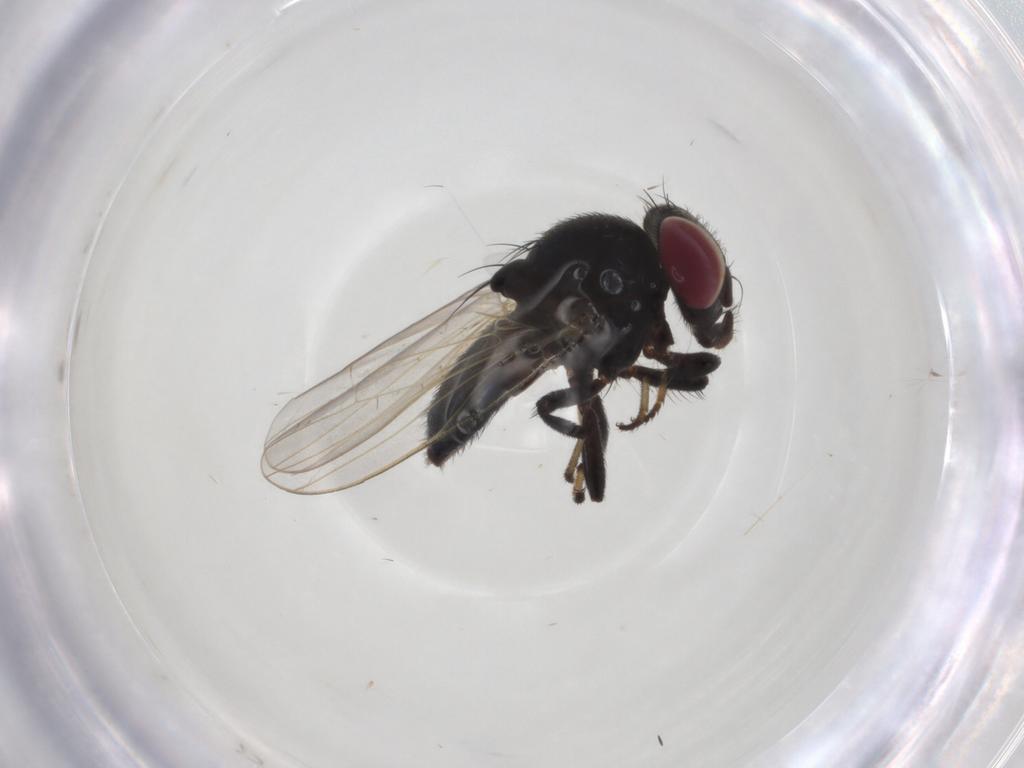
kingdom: Animalia
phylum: Arthropoda
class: Insecta
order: Diptera
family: Lonchaeidae
